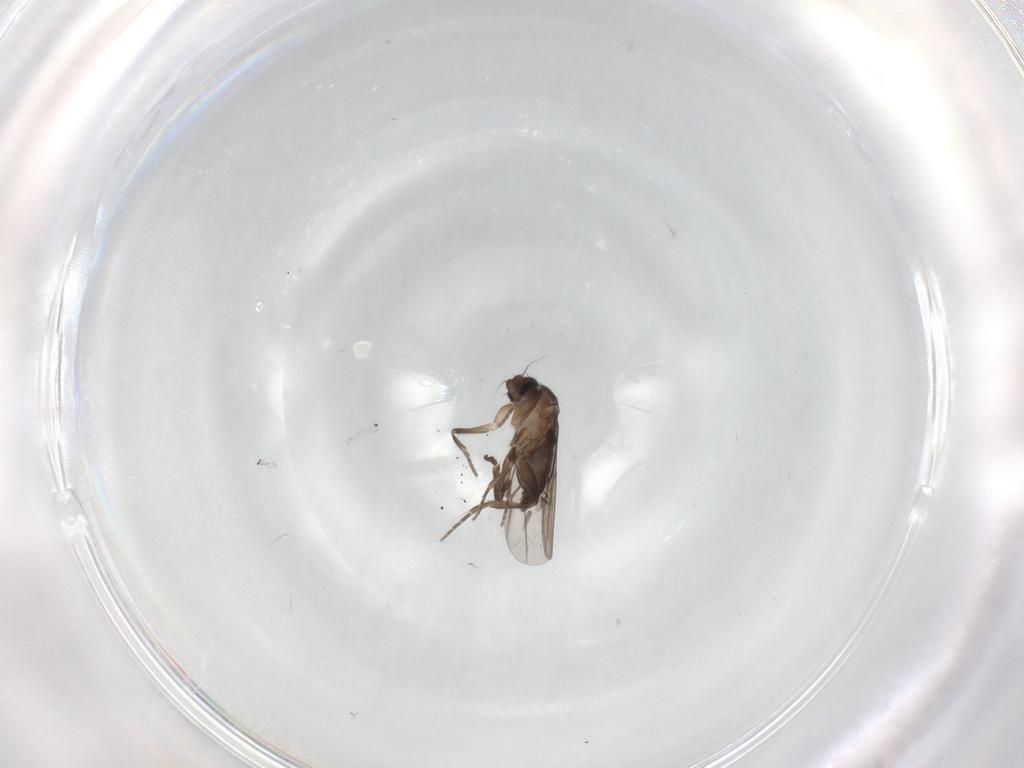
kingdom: Animalia
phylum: Arthropoda
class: Insecta
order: Diptera
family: Phoridae
